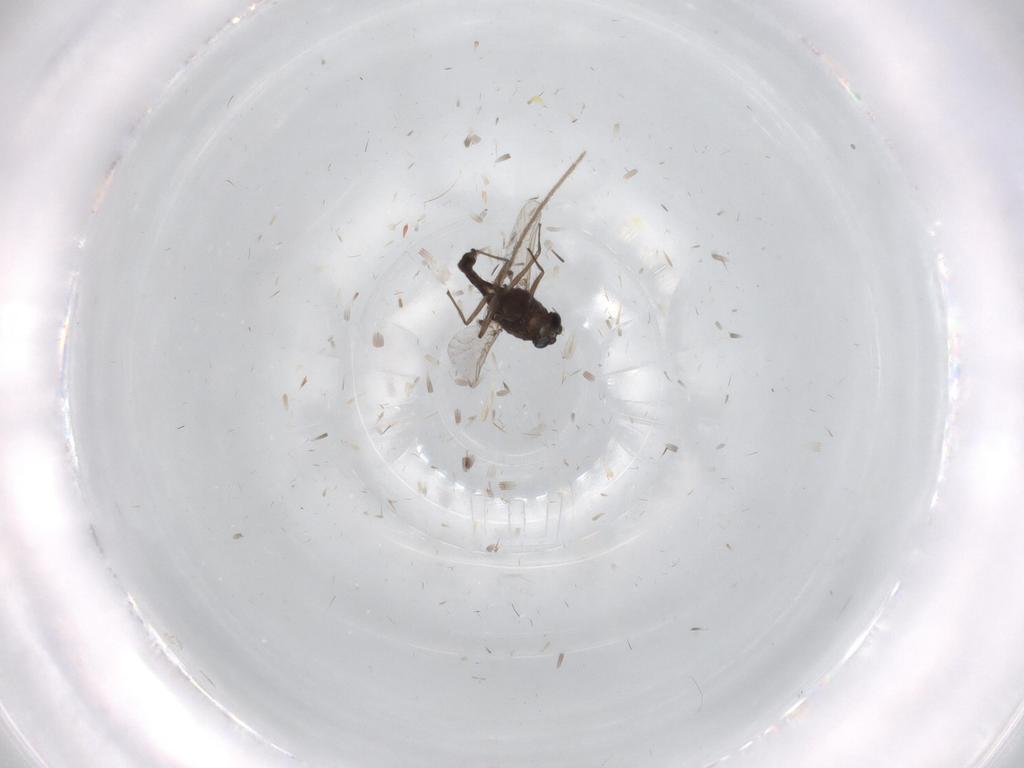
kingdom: Animalia
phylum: Arthropoda
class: Insecta
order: Diptera
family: Chironomidae
